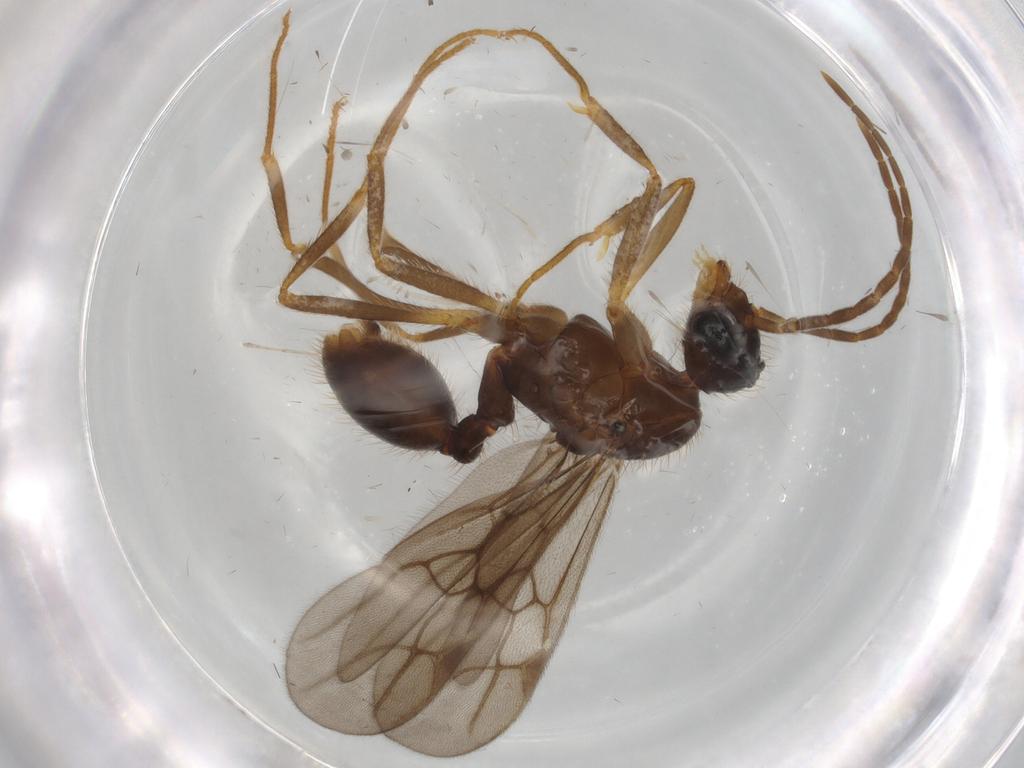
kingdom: Animalia
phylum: Arthropoda
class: Insecta
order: Hymenoptera
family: Formicidae
